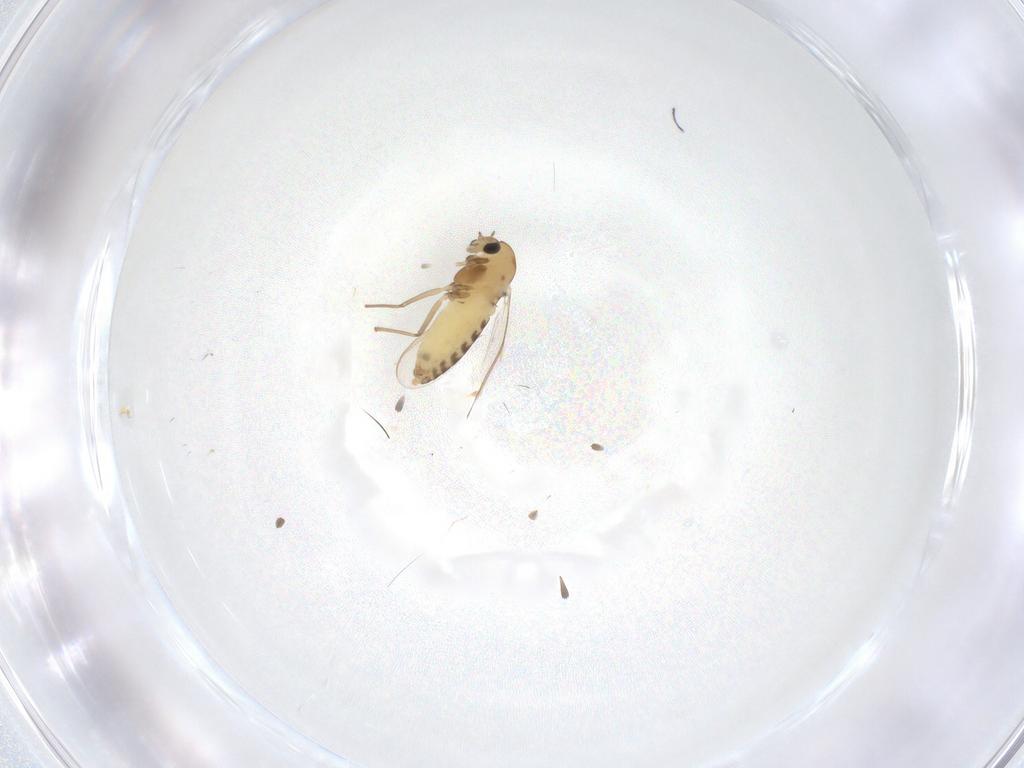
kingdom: Animalia
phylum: Arthropoda
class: Insecta
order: Diptera
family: Chironomidae
